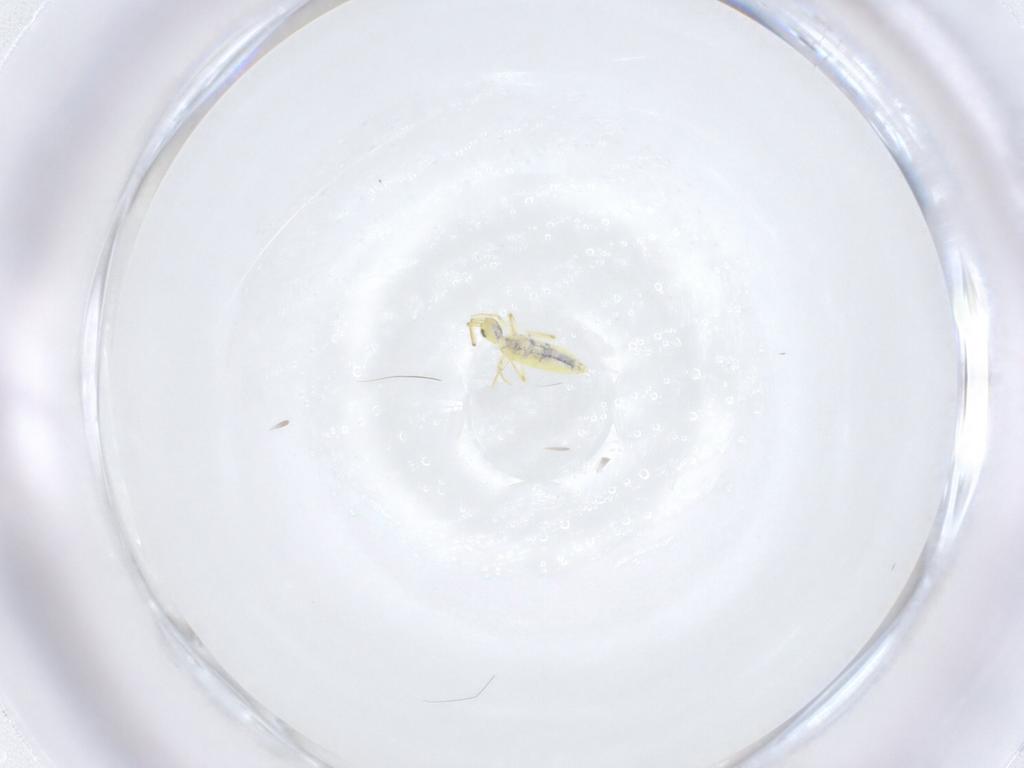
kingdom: Animalia
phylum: Arthropoda
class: Collembola
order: Entomobryomorpha
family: Entomobryidae
